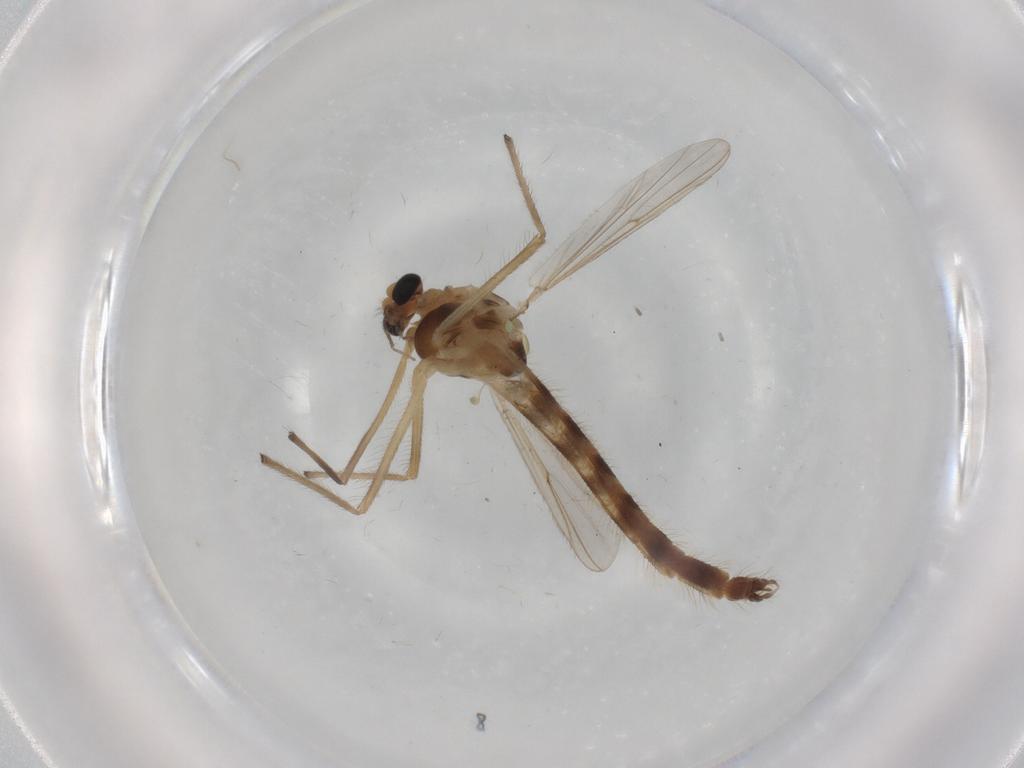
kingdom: Animalia
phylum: Arthropoda
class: Insecta
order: Diptera
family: Chironomidae
